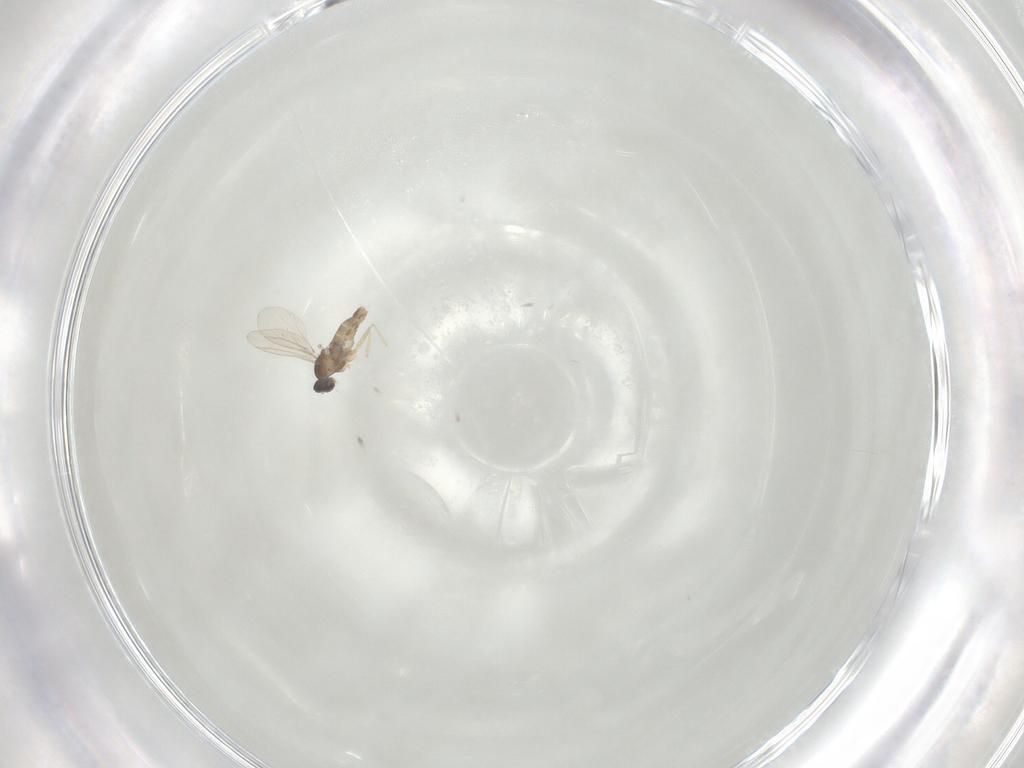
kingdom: Animalia
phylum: Arthropoda
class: Insecta
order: Diptera
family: Cecidomyiidae
